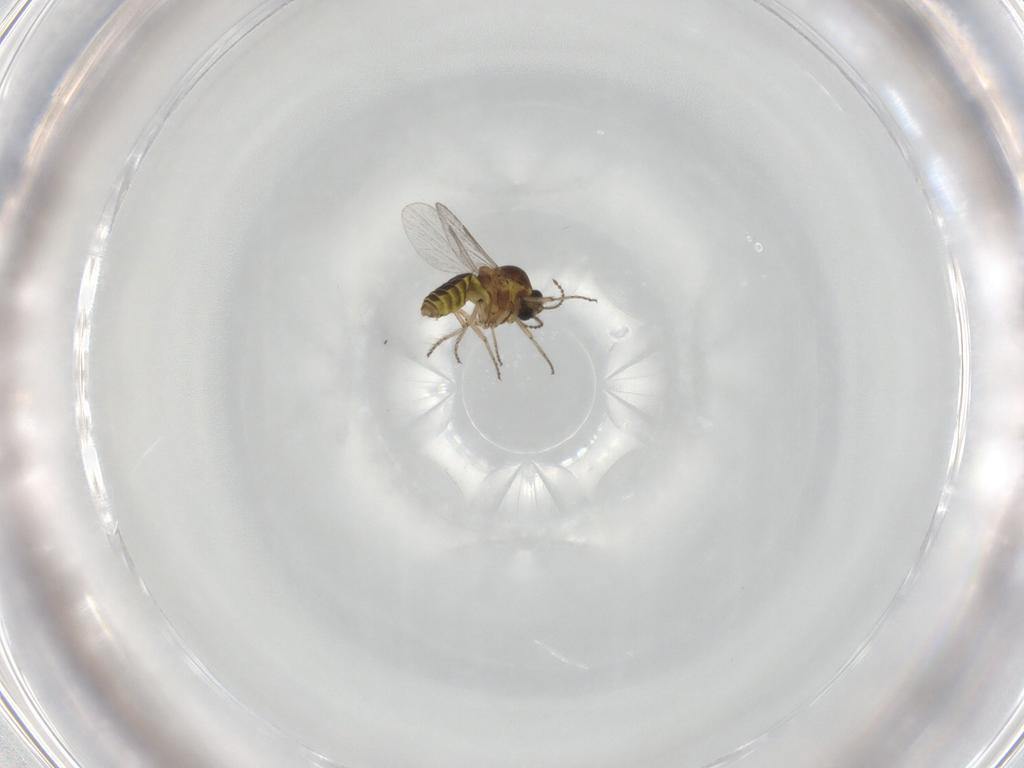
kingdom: Animalia
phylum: Arthropoda
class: Insecta
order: Diptera
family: Ceratopogonidae
